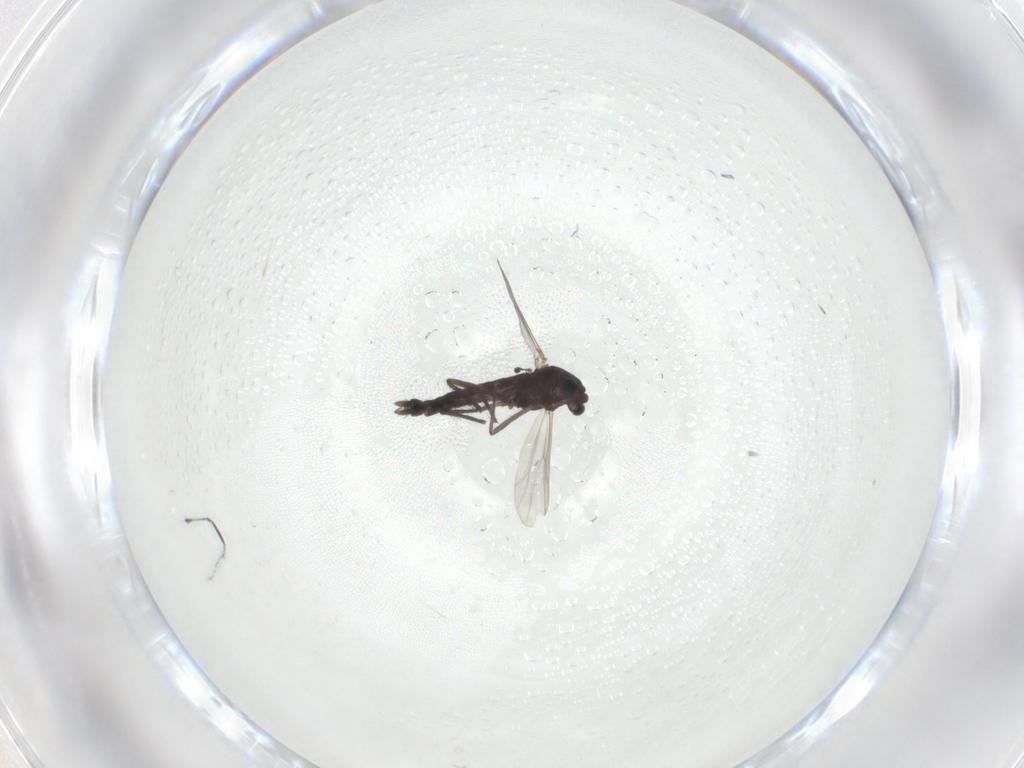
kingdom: Animalia
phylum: Arthropoda
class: Insecta
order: Diptera
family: Chironomidae
